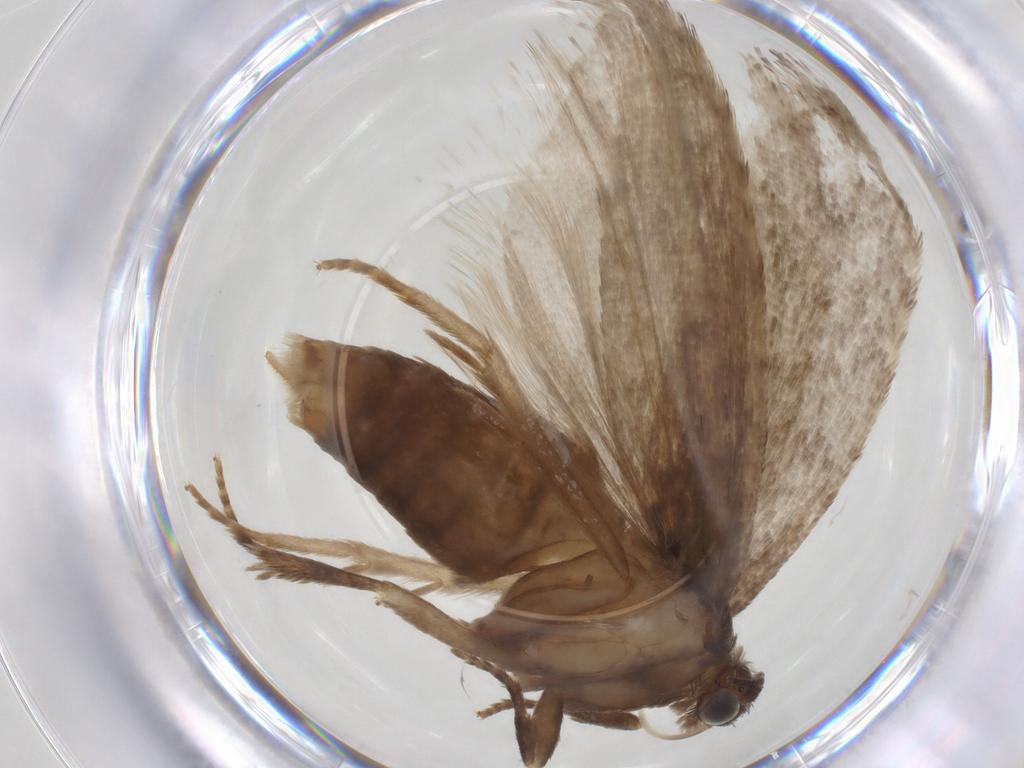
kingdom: Animalia
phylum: Arthropoda
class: Insecta
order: Lepidoptera
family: Tortricidae
